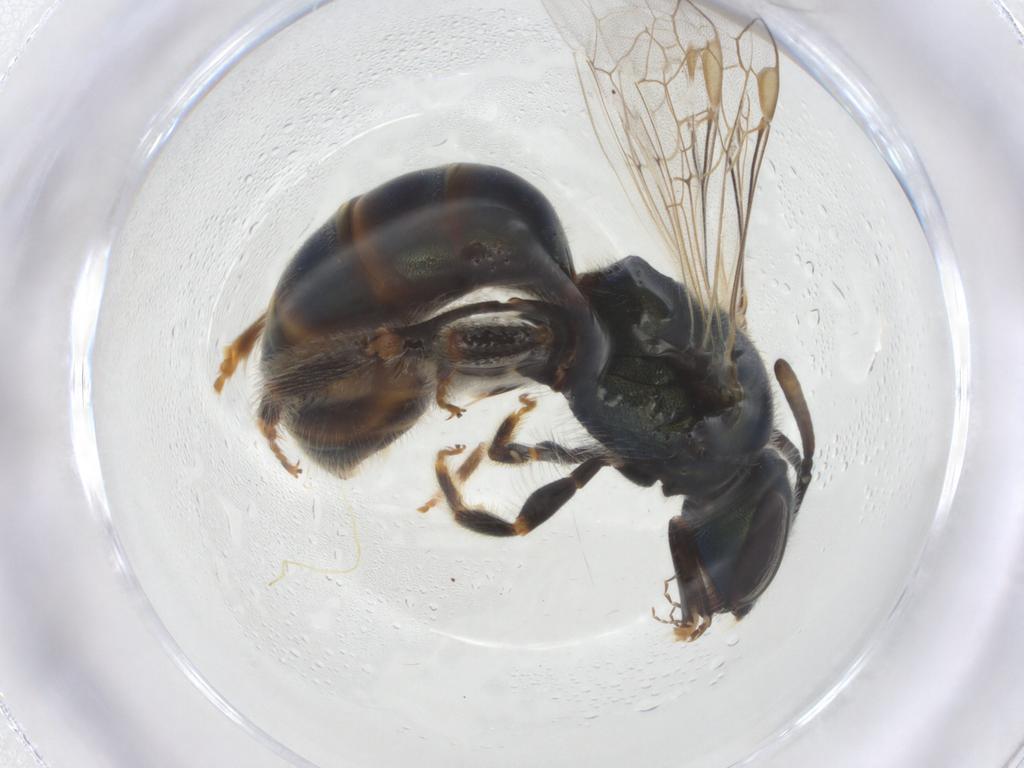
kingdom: Animalia
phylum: Arthropoda
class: Insecta
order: Hymenoptera
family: Halictidae
